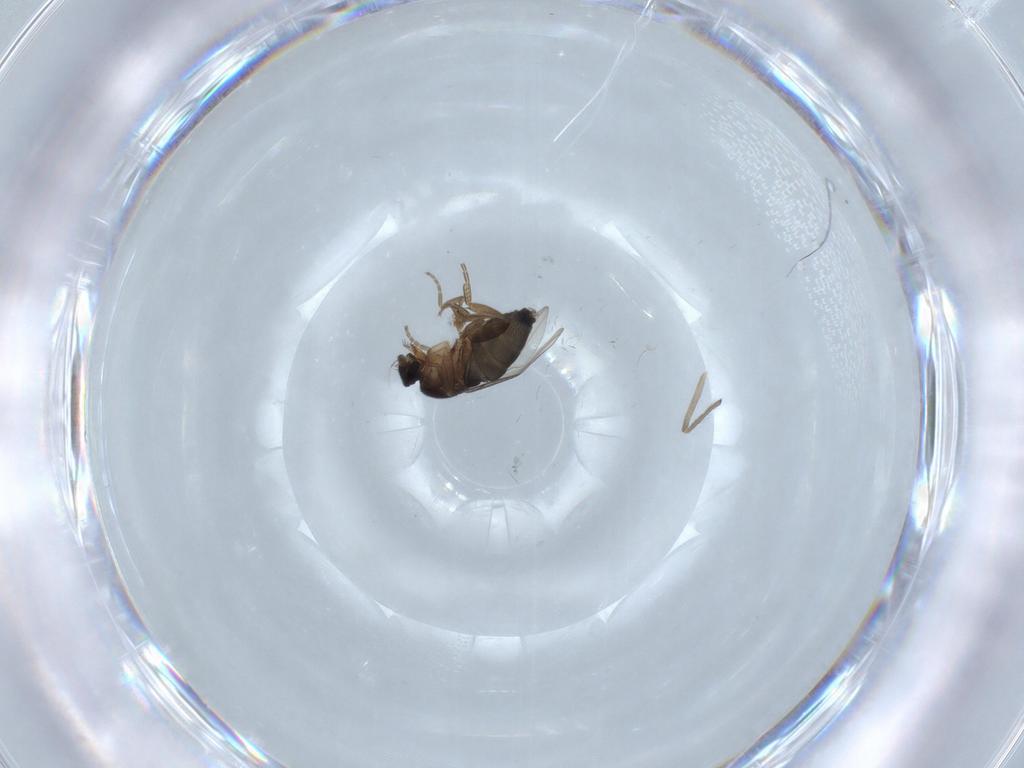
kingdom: Animalia
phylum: Arthropoda
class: Insecta
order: Diptera
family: Phoridae
